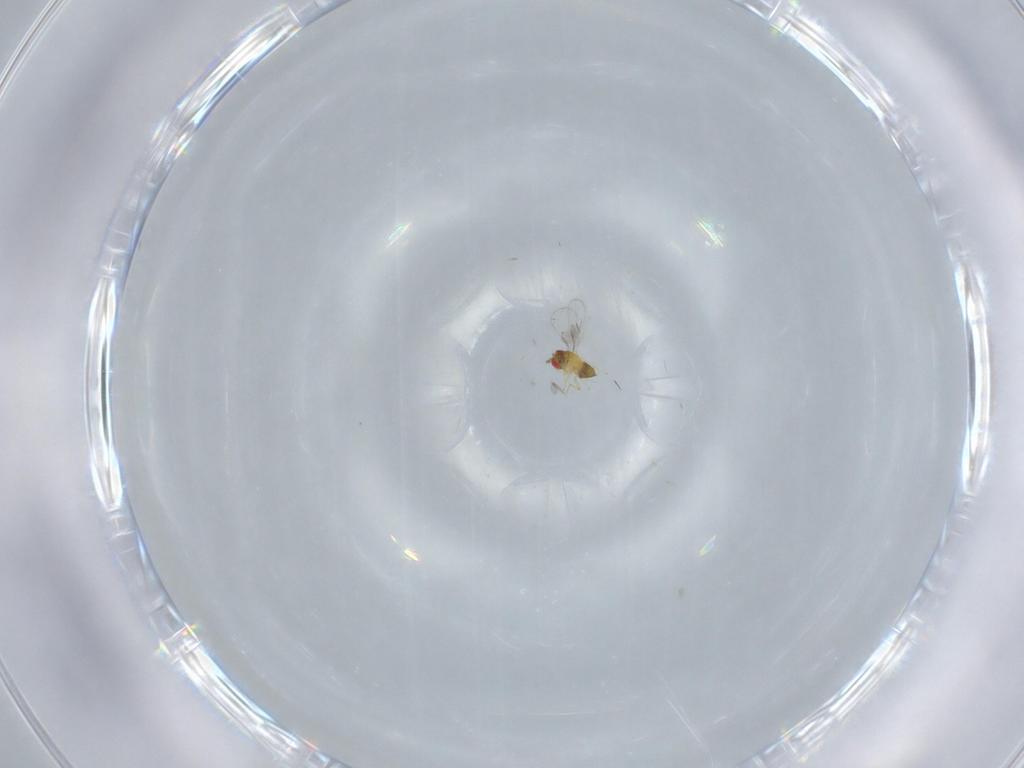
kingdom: Animalia
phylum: Arthropoda
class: Insecta
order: Hymenoptera
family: Trichogrammatidae
